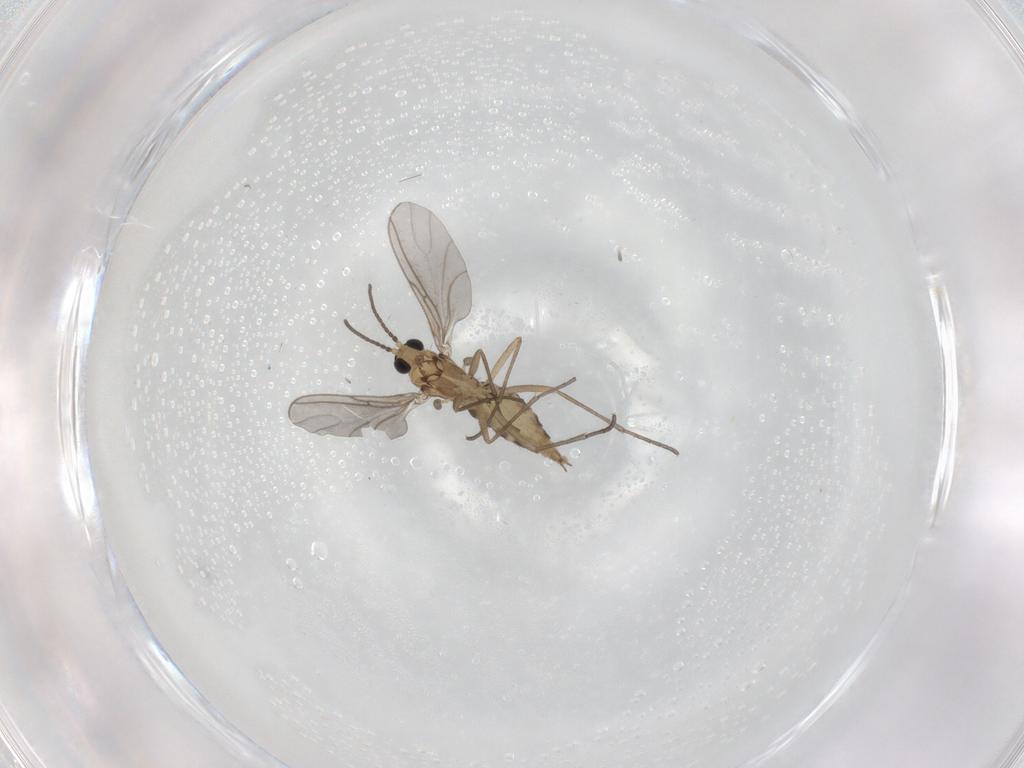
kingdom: Animalia
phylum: Arthropoda
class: Insecta
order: Diptera
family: Sciaridae
